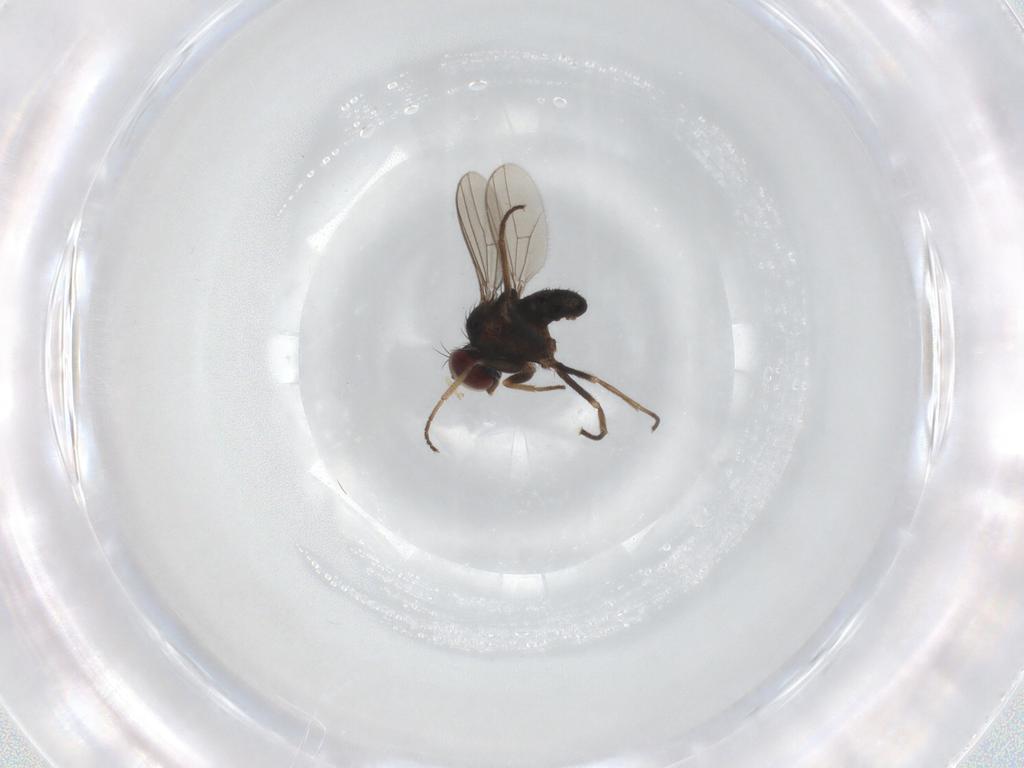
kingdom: Animalia
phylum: Arthropoda
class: Insecta
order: Diptera
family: Dolichopodidae
